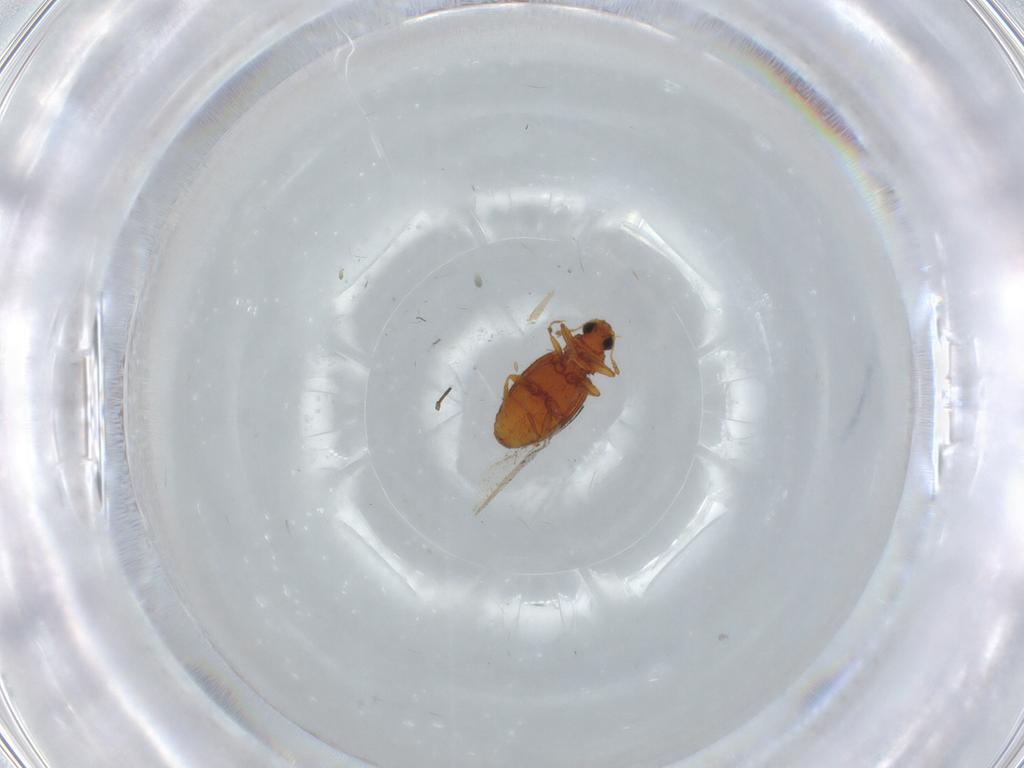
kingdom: Animalia
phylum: Arthropoda
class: Insecta
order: Coleoptera
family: Latridiidae
